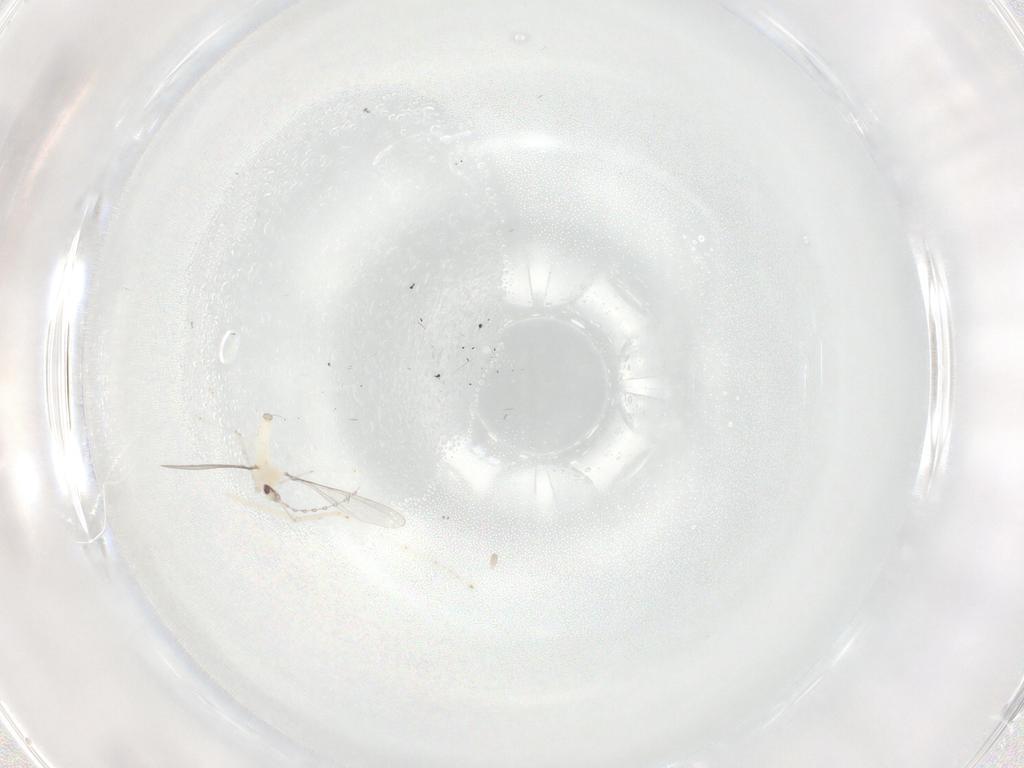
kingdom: Animalia
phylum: Arthropoda
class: Insecta
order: Diptera
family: Cecidomyiidae
